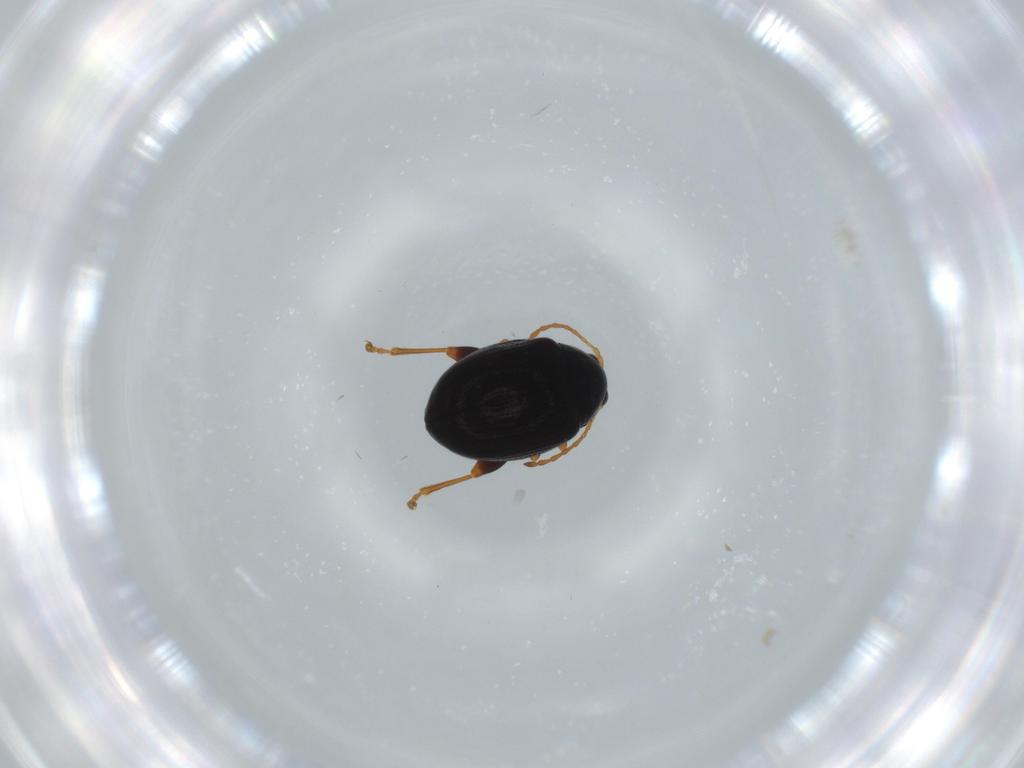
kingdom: Animalia
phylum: Arthropoda
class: Insecta
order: Coleoptera
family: Chrysomelidae
